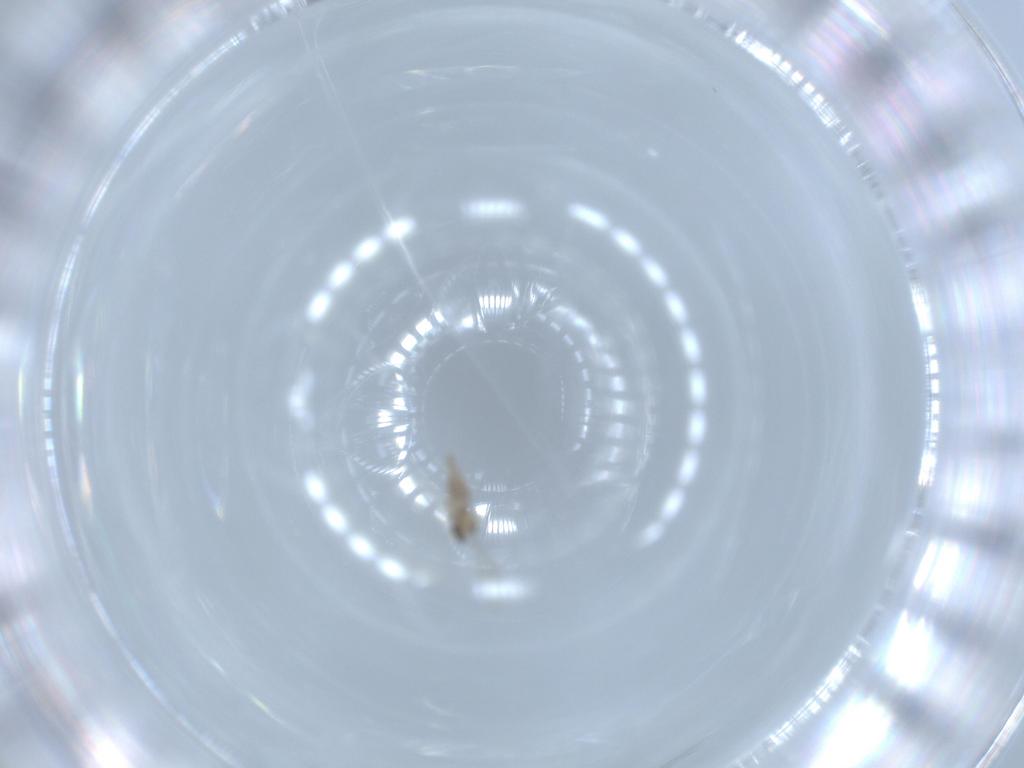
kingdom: Animalia
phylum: Arthropoda
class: Insecta
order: Diptera
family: Cecidomyiidae
